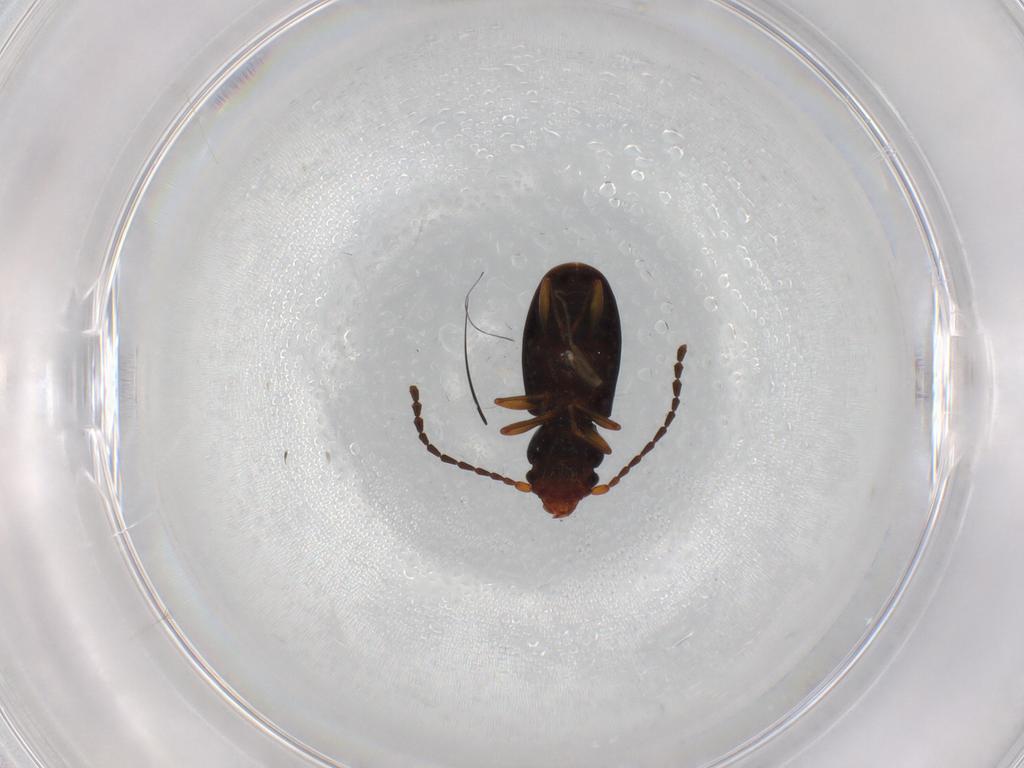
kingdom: Animalia
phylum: Arthropoda
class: Insecta
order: Coleoptera
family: Laemophloeidae
